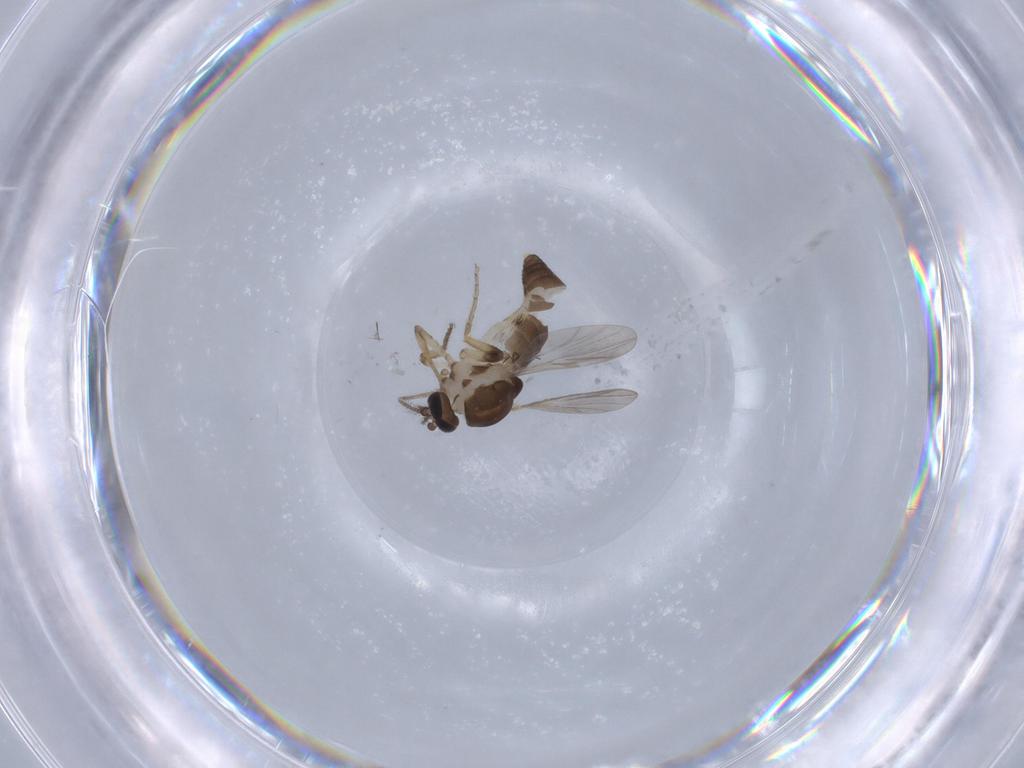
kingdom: Animalia
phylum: Arthropoda
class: Insecta
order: Diptera
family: Ceratopogonidae
